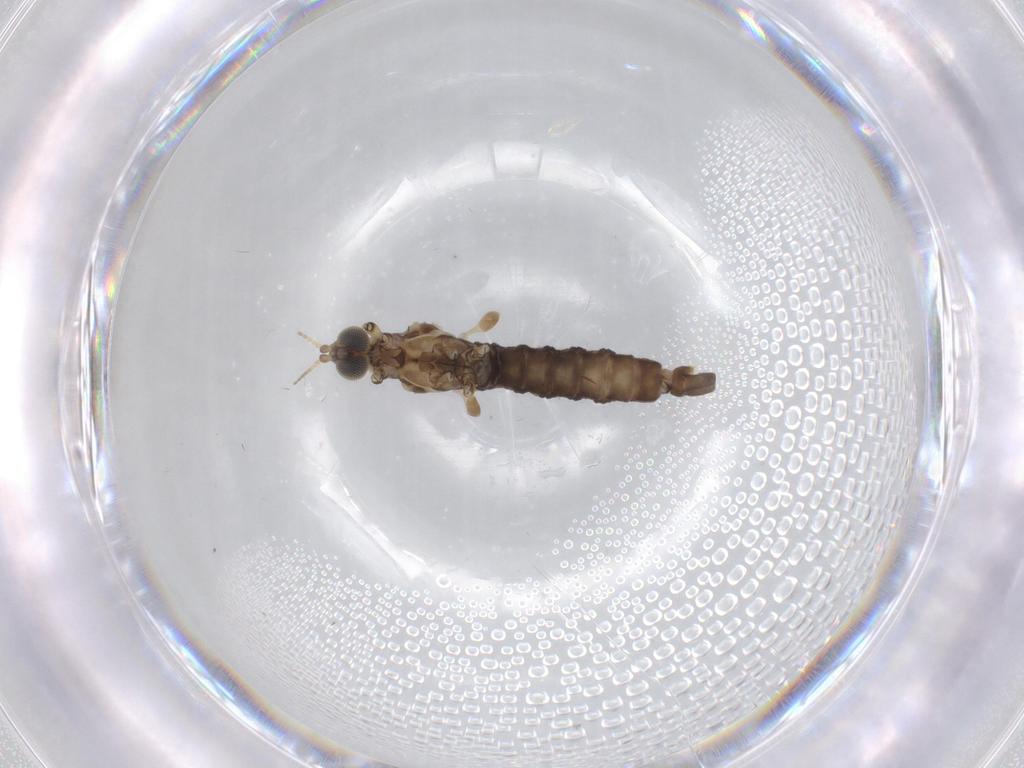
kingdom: Animalia
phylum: Arthropoda
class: Insecta
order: Diptera
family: Limoniidae
